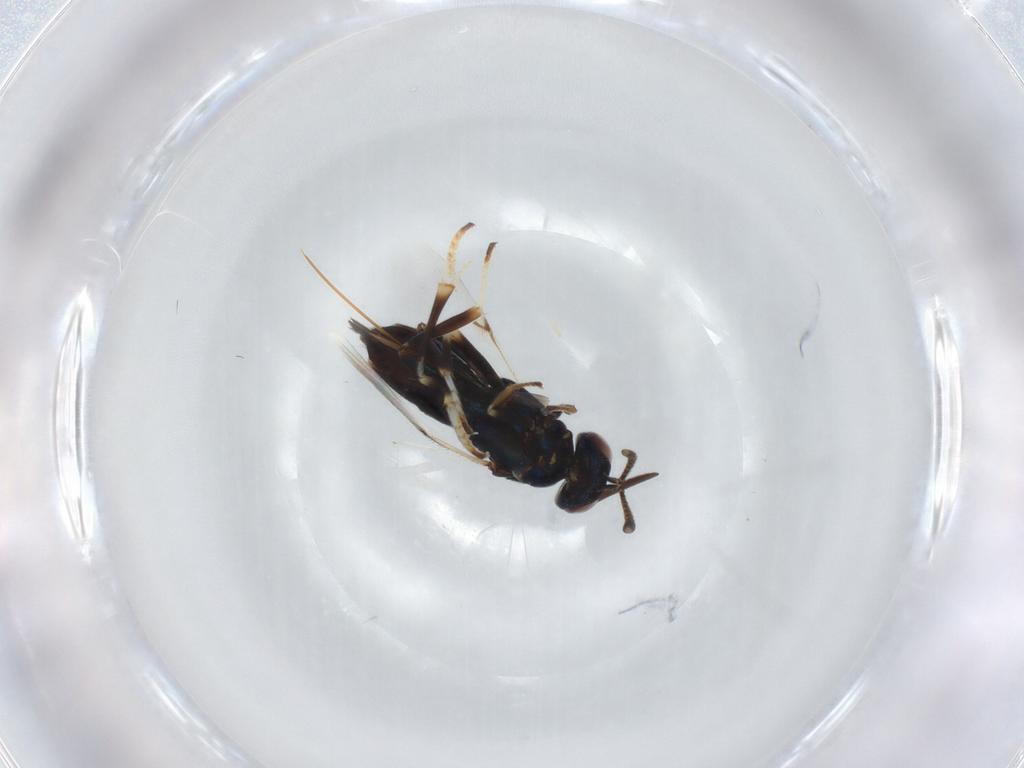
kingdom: Animalia
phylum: Arthropoda
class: Insecta
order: Hymenoptera
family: Encyrtidae
